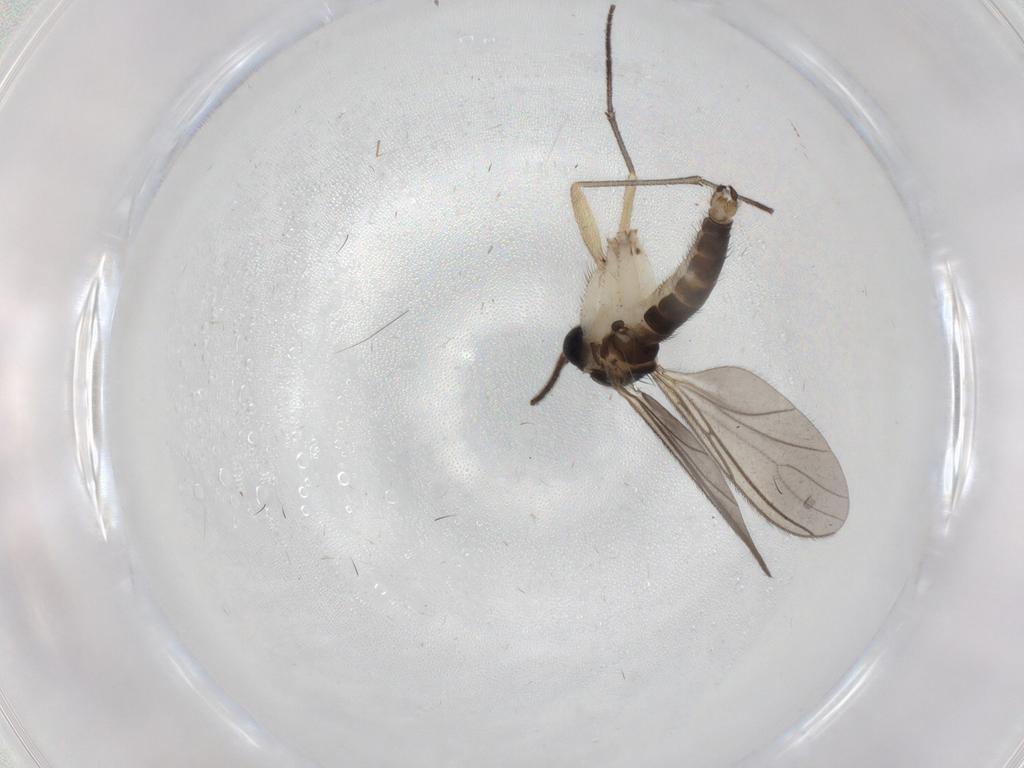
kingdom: Animalia
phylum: Arthropoda
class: Insecta
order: Diptera
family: Sciaridae
